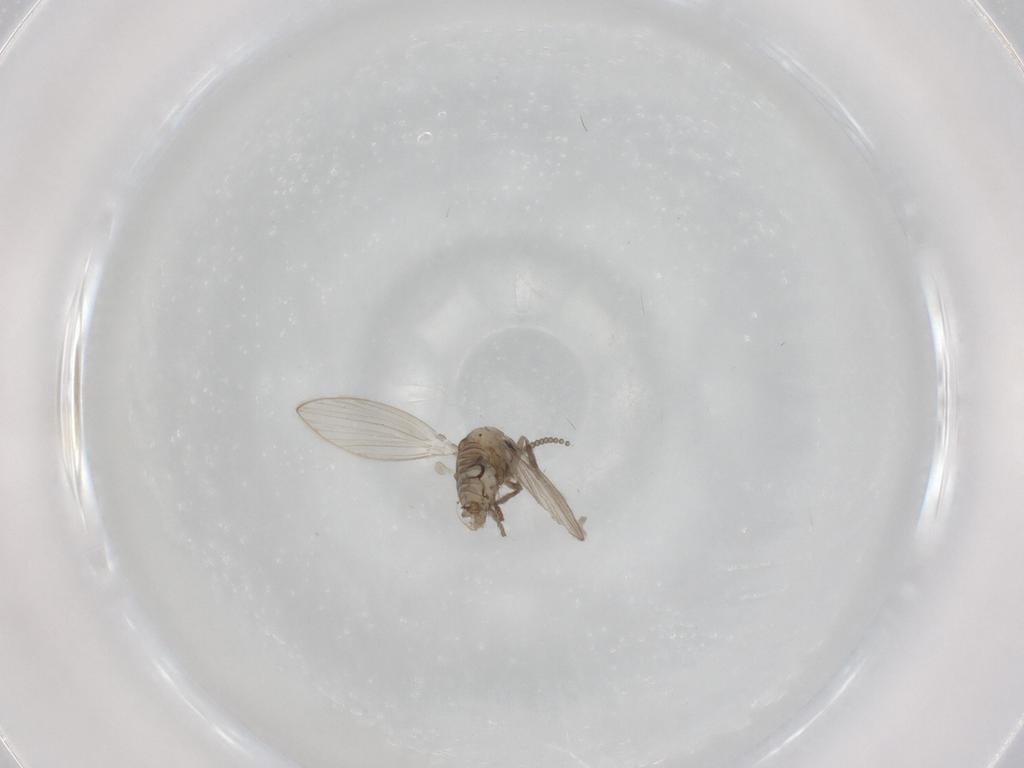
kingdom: Animalia
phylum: Arthropoda
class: Insecta
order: Diptera
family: Psychodidae
